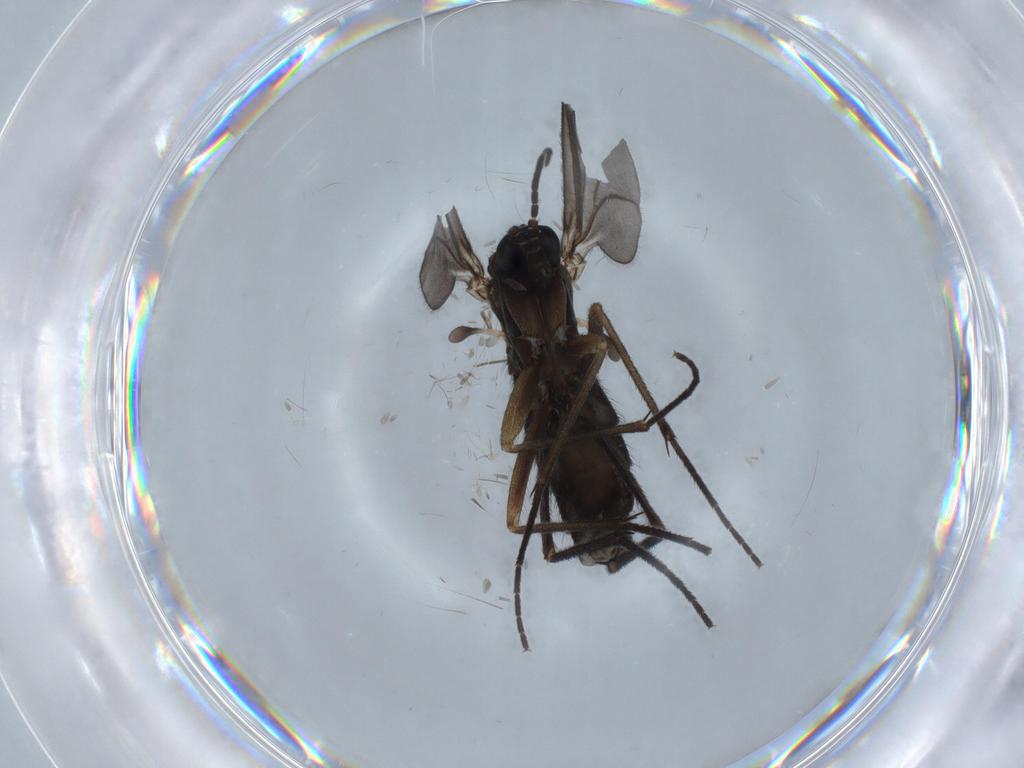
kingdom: Animalia
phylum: Arthropoda
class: Insecta
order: Diptera
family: Sciaridae
